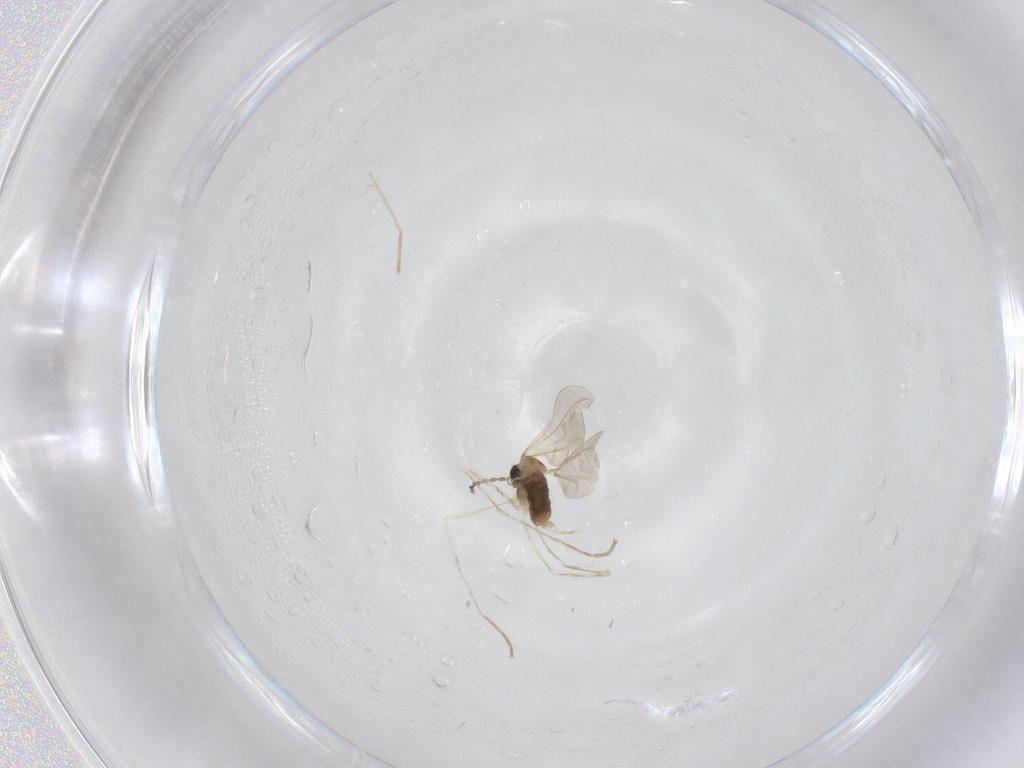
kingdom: Animalia
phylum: Arthropoda
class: Insecta
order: Diptera
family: Cecidomyiidae
